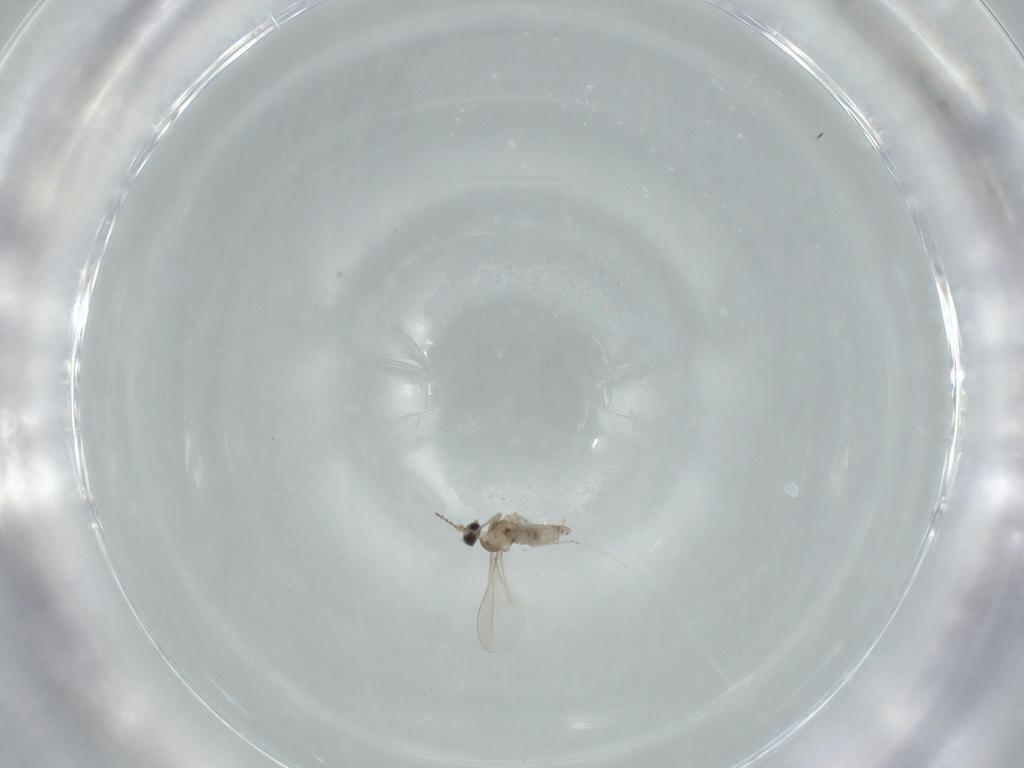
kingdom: Animalia
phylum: Arthropoda
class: Insecta
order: Diptera
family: Cecidomyiidae
